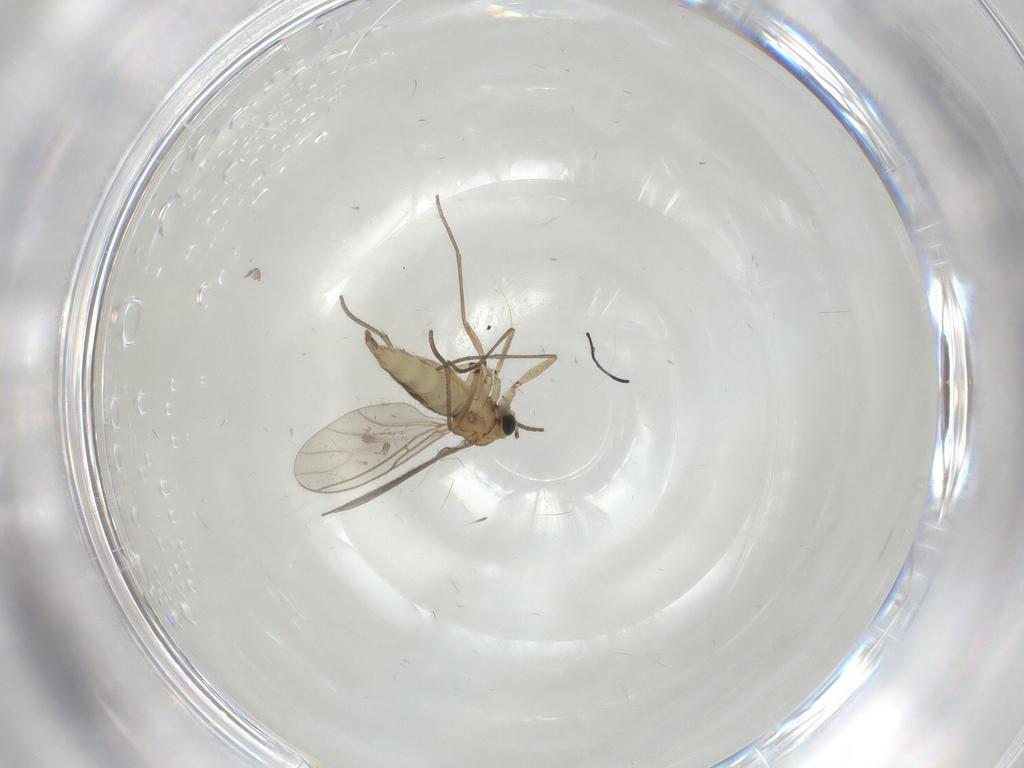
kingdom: Animalia
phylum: Arthropoda
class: Insecta
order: Diptera
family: Sciaridae
